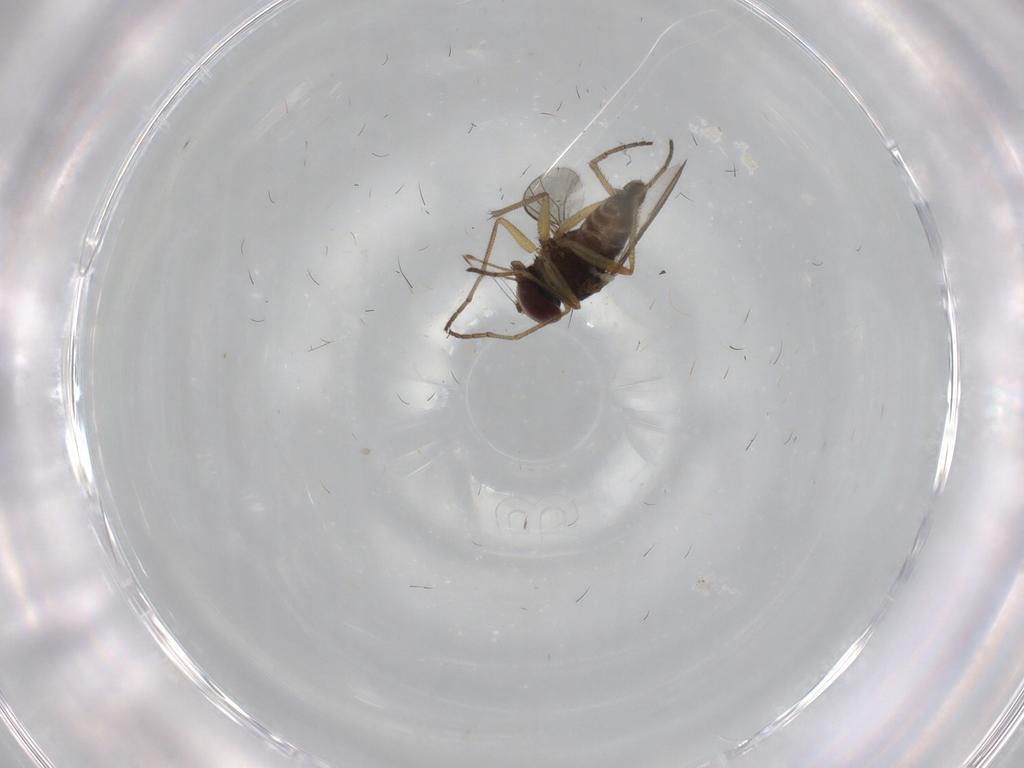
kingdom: Animalia
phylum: Arthropoda
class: Insecta
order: Diptera
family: Dolichopodidae
